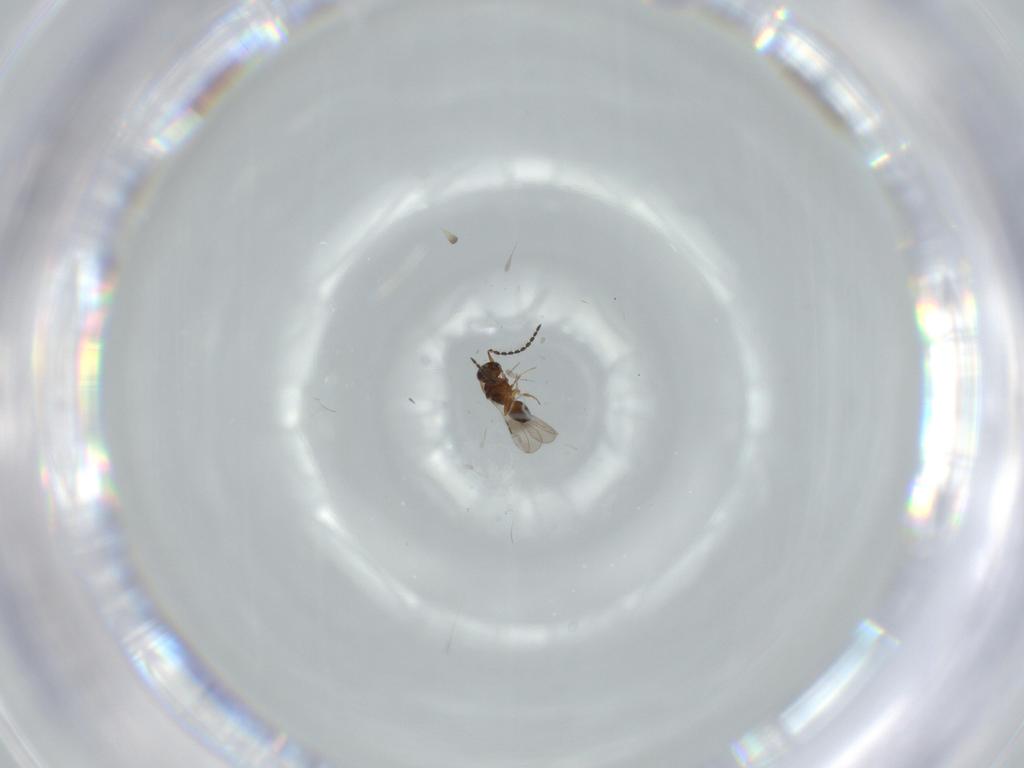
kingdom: Animalia
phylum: Arthropoda
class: Insecta
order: Hymenoptera
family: Ceraphronidae
